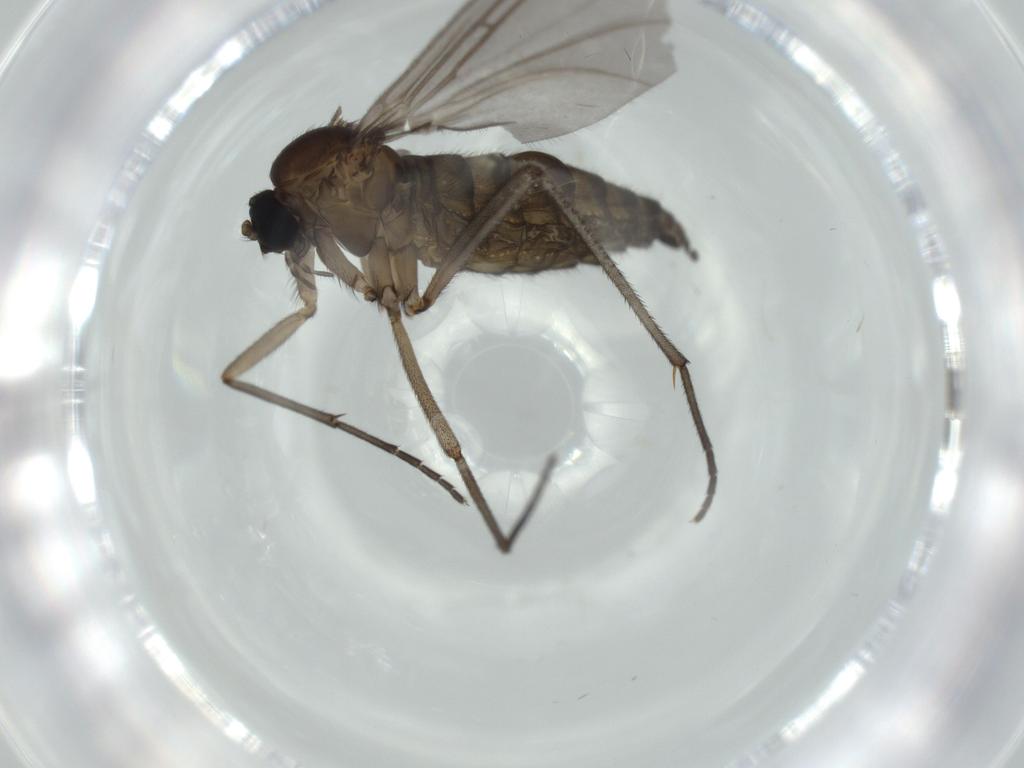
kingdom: Animalia
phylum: Arthropoda
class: Insecta
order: Diptera
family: Sciaridae
